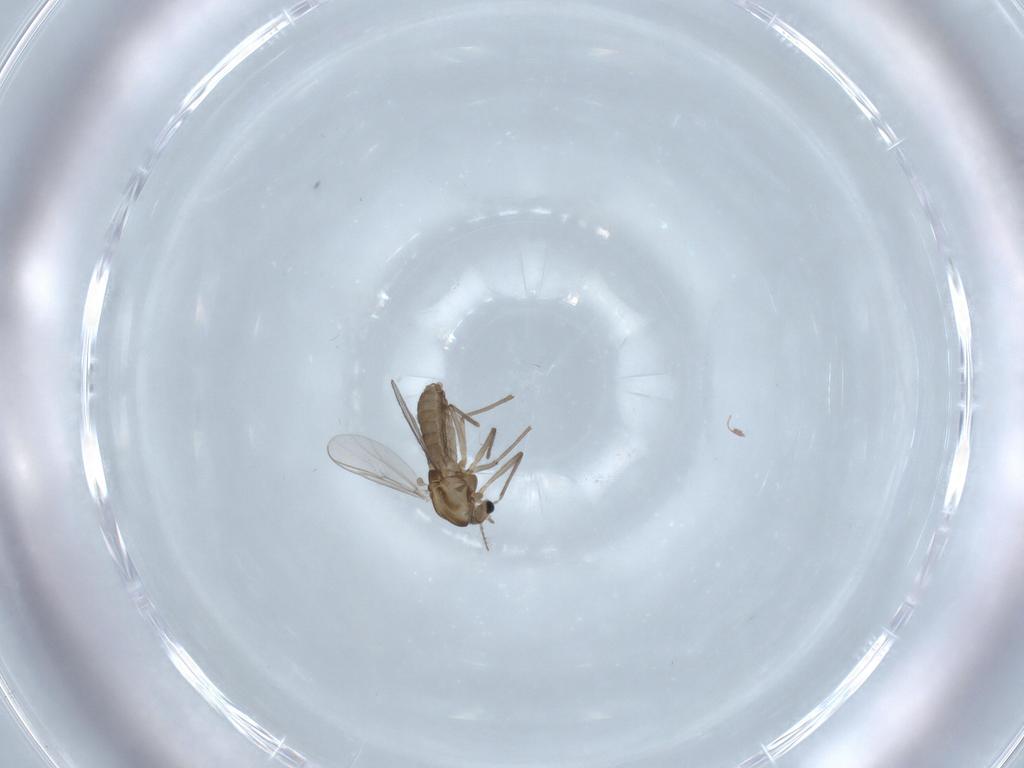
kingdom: Animalia
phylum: Arthropoda
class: Insecta
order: Diptera
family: Chironomidae
